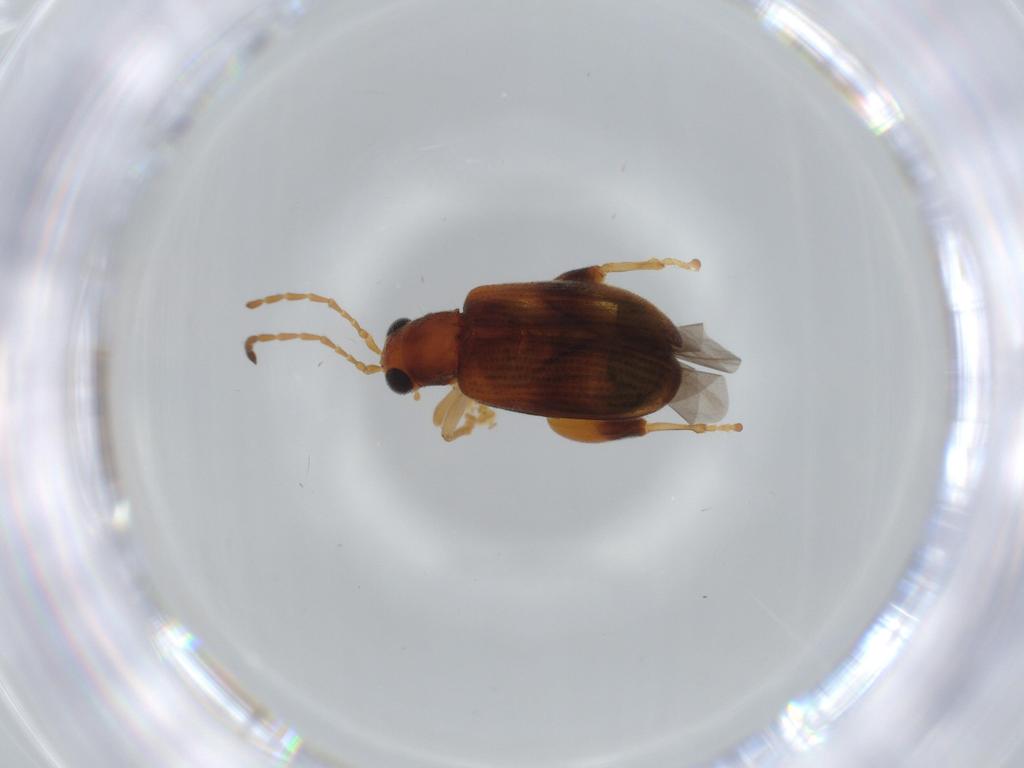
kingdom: Animalia
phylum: Arthropoda
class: Insecta
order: Coleoptera
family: Chrysomelidae
